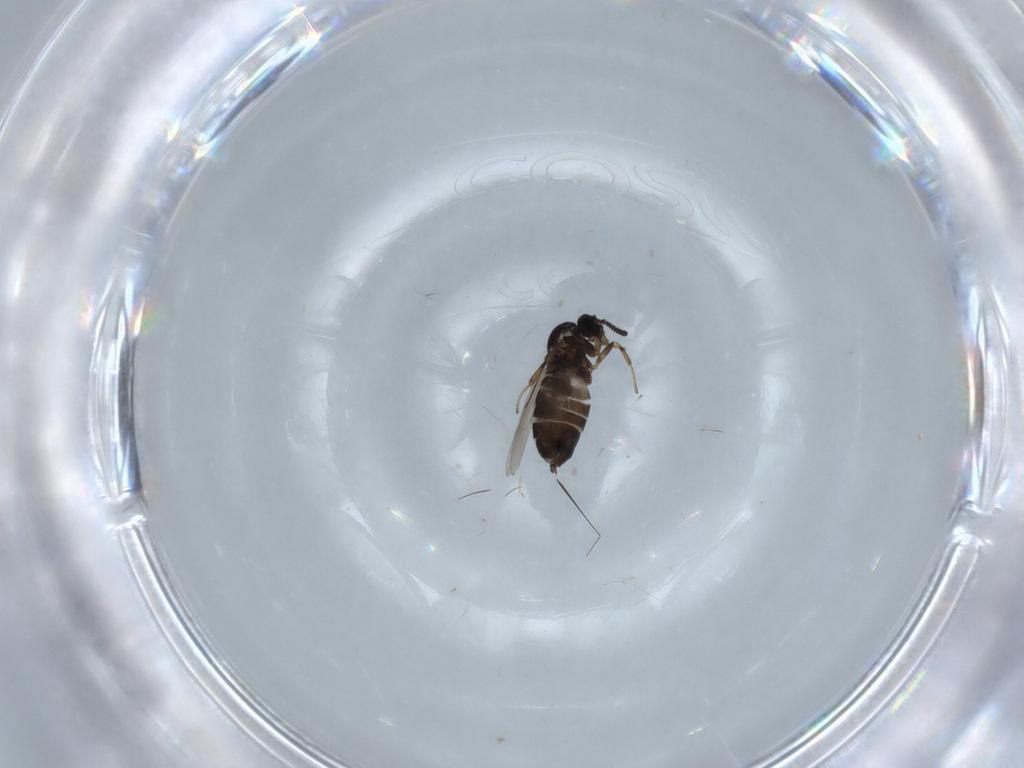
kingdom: Animalia
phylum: Arthropoda
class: Insecta
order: Diptera
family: Scatopsidae
